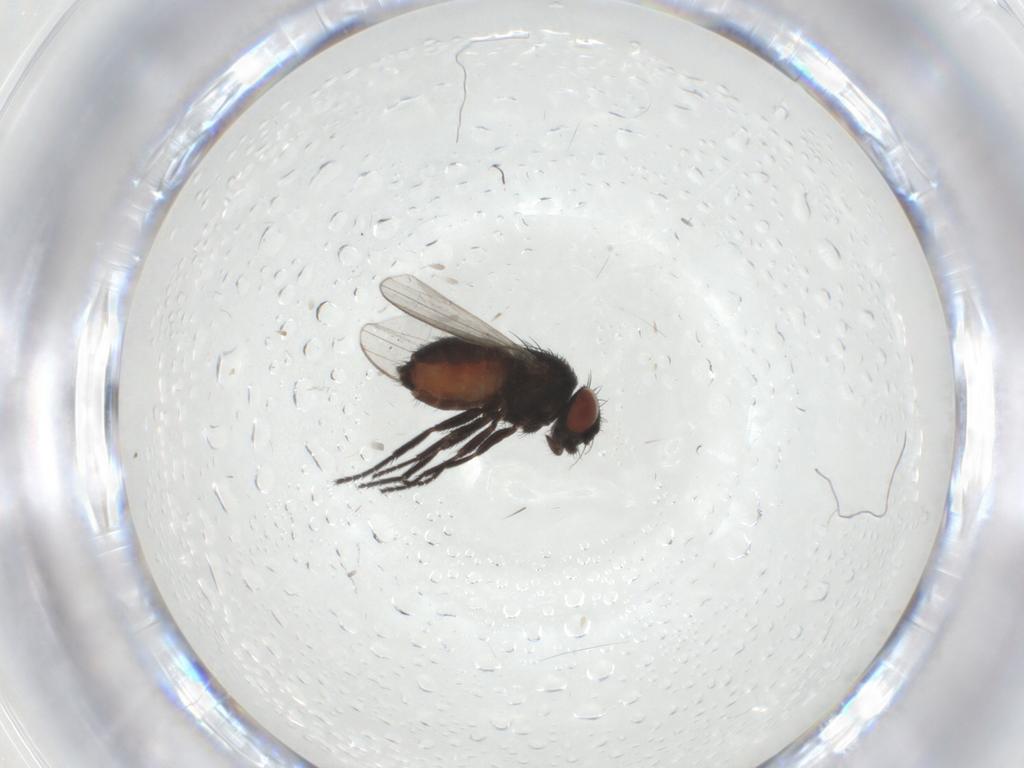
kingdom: Animalia
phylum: Arthropoda
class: Insecta
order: Diptera
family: Milichiidae
